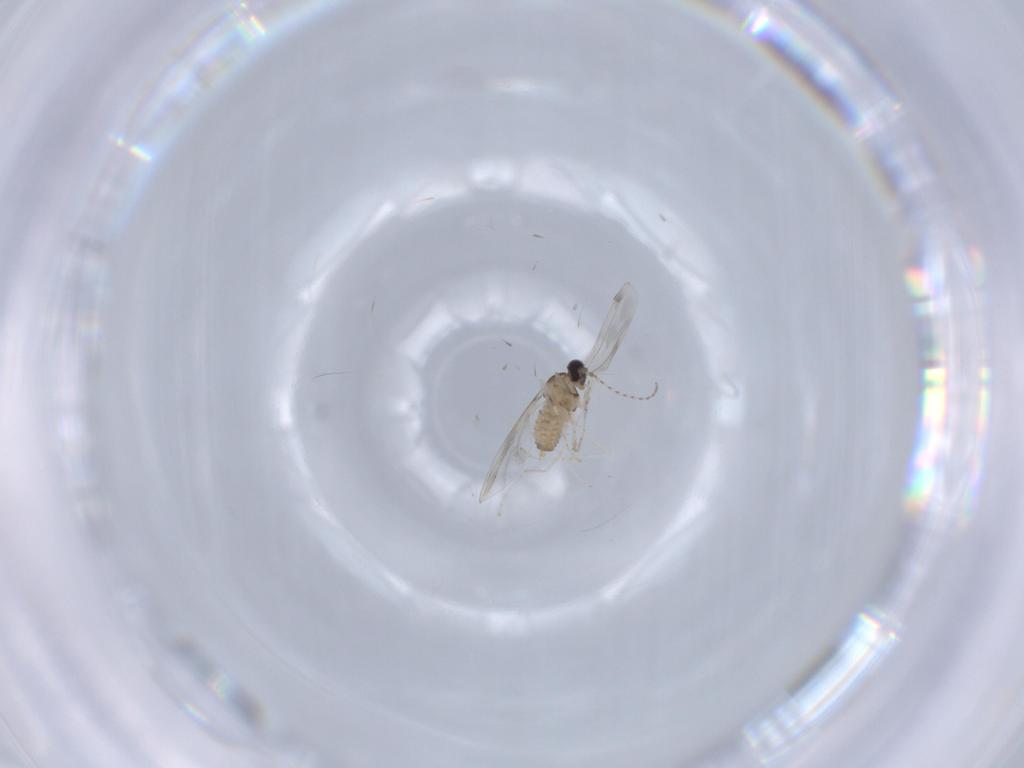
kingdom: Animalia
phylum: Arthropoda
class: Insecta
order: Diptera
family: Cecidomyiidae
